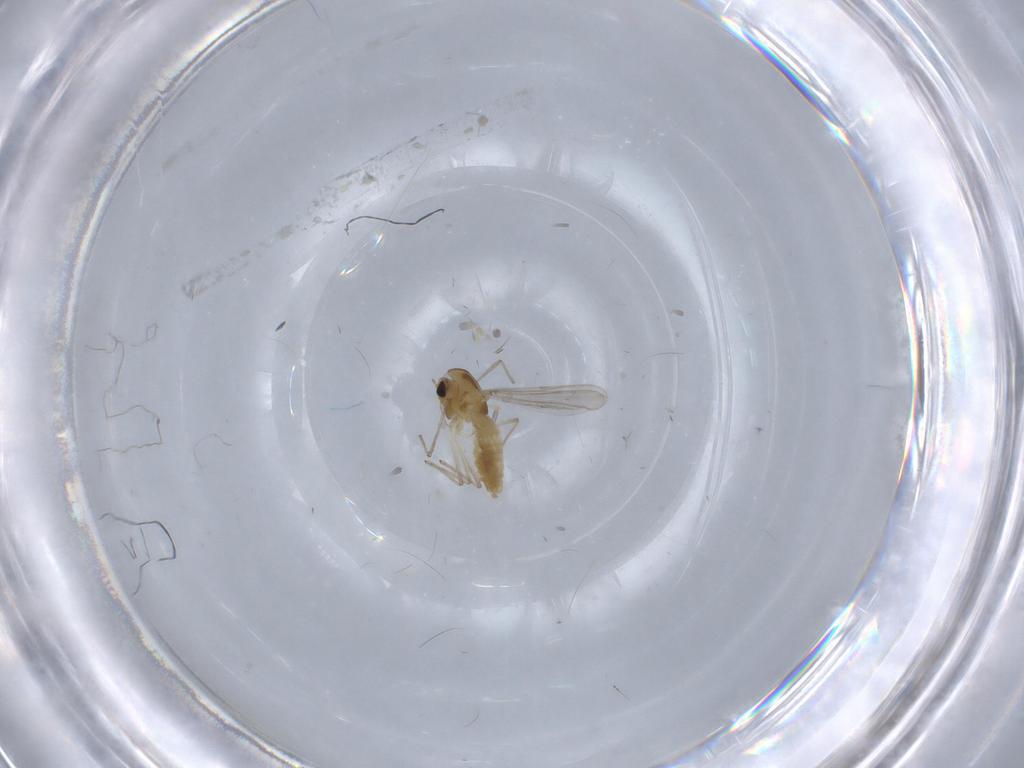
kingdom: Animalia
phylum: Arthropoda
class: Insecta
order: Diptera
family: Chironomidae
